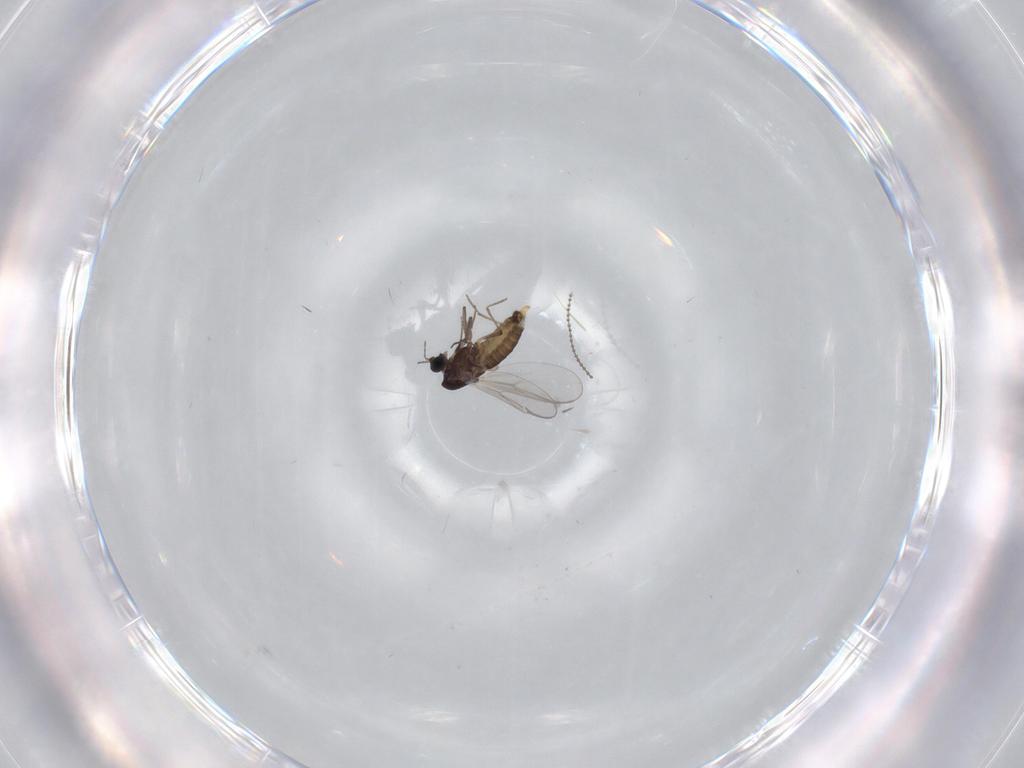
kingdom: Animalia
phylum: Arthropoda
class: Insecta
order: Diptera
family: Chironomidae
